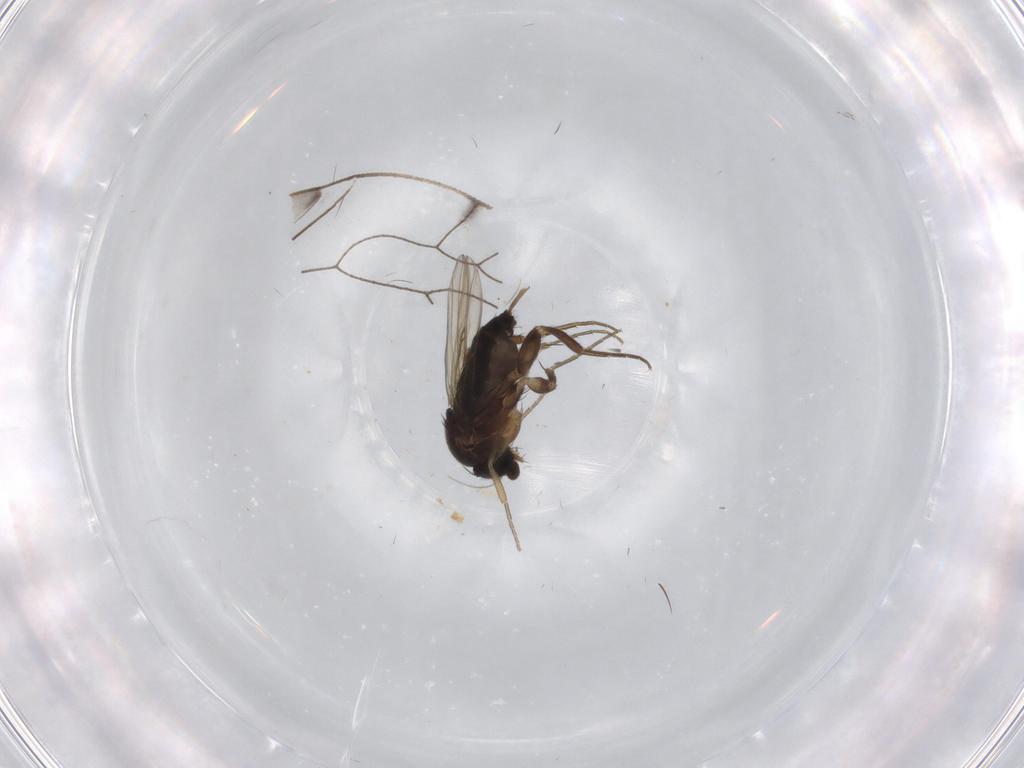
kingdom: Animalia
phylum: Arthropoda
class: Insecta
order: Diptera
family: Phoridae
